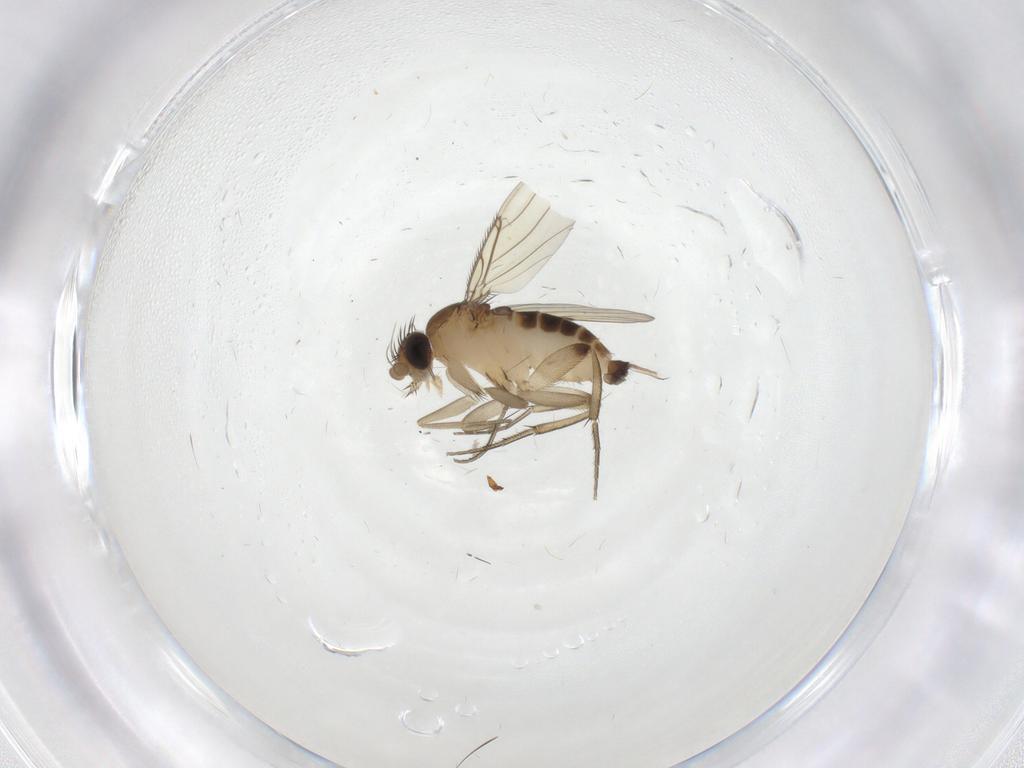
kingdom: Animalia
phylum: Arthropoda
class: Insecta
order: Diptera
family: Phoridae
